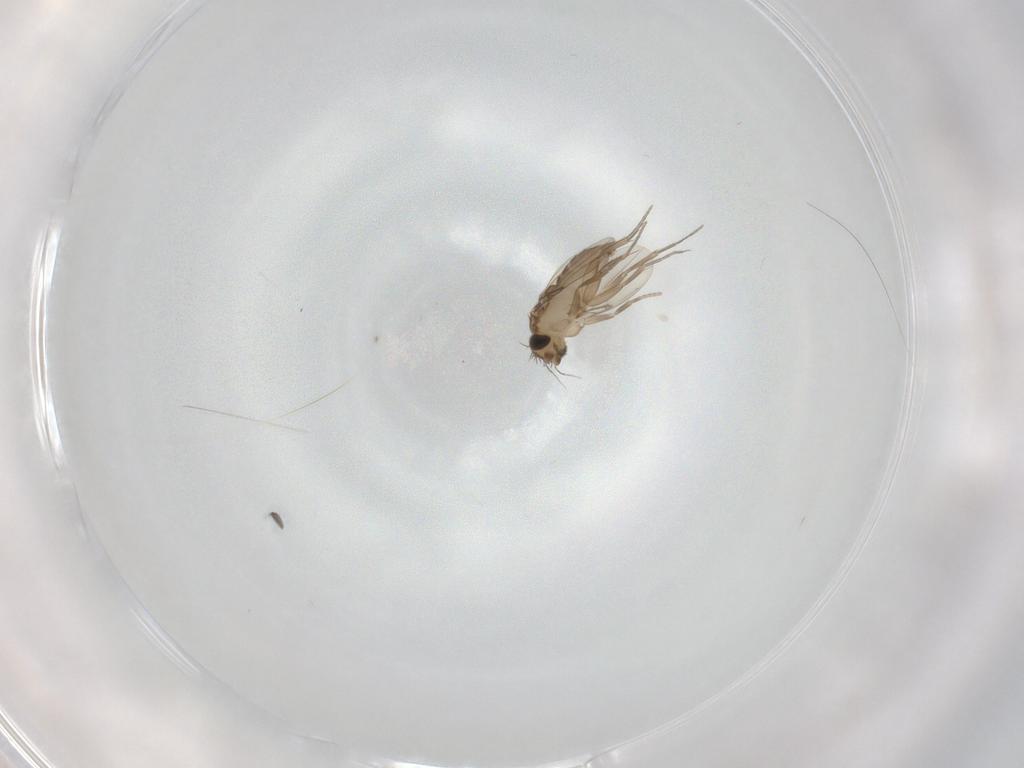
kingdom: Animalia
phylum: Arthropoda
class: Insecta
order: Diptera
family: Phoridae
